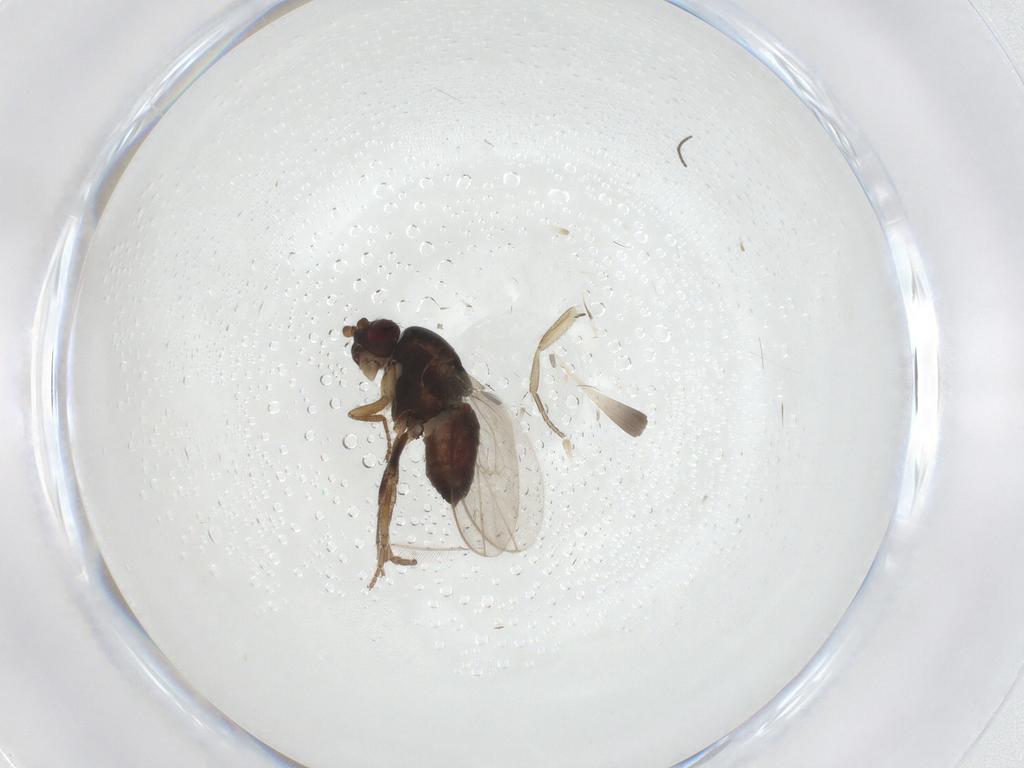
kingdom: Animalia
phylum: Arthropoda
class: Insecta
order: Diptera
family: Phoridae
